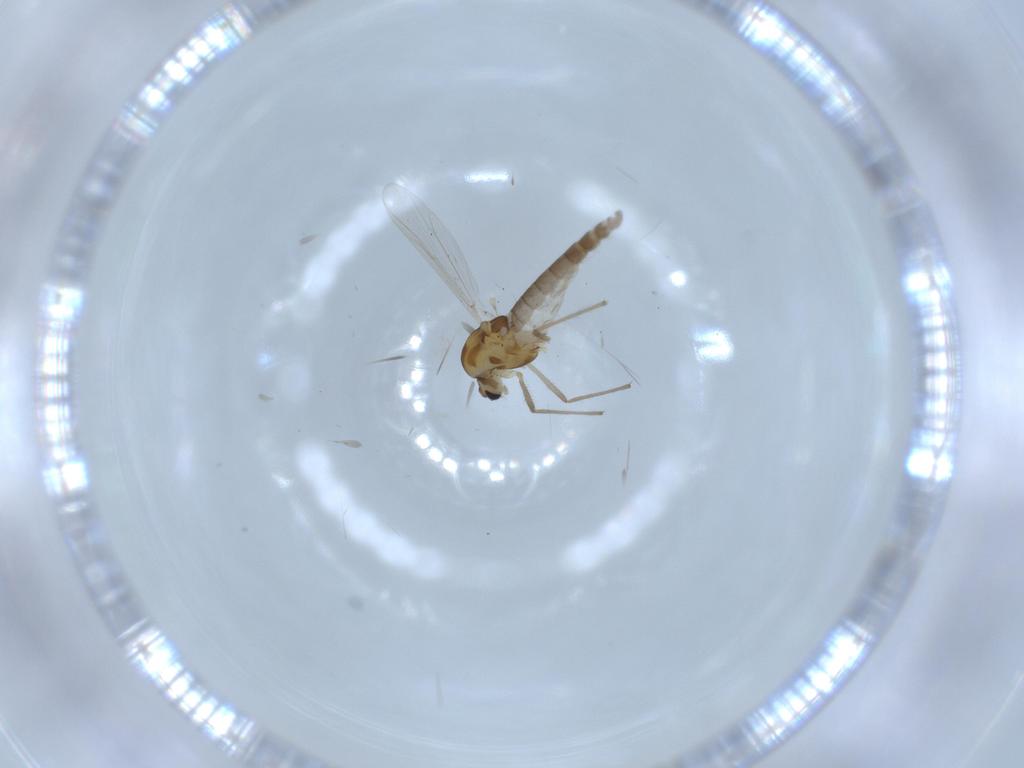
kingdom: Animalia
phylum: Arthropoda
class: Insecta
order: Diptera
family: Chironomidae
